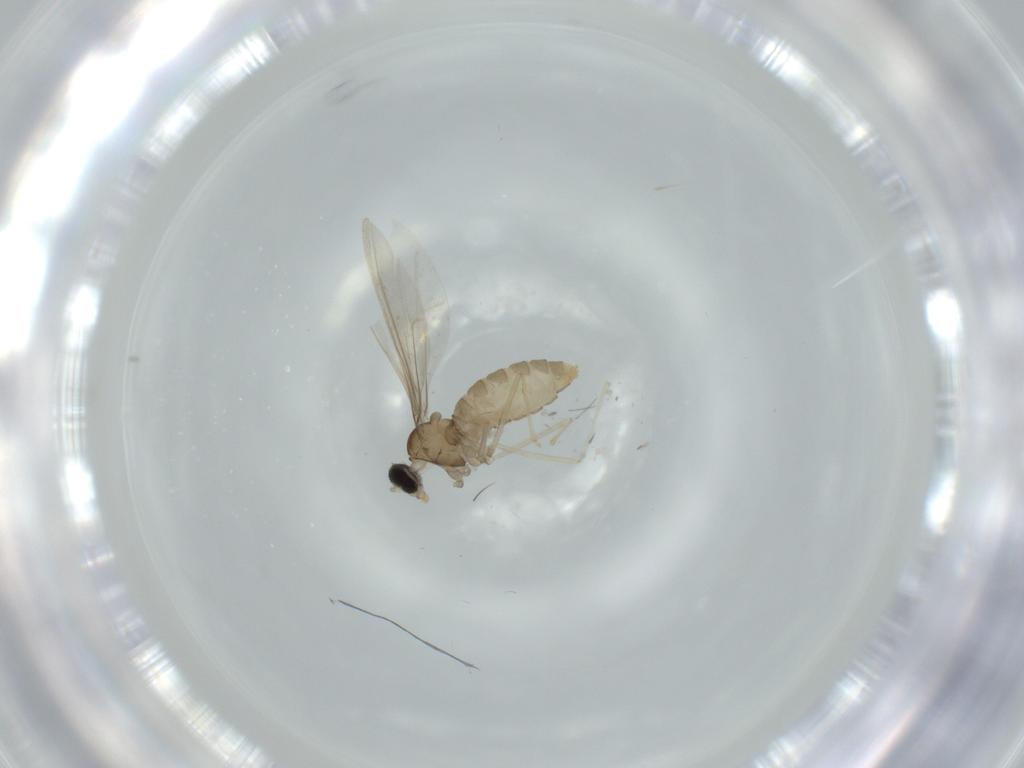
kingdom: Animalia
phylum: Arthropoda
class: Insecta
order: Diptera
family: Cecidomyiidae
